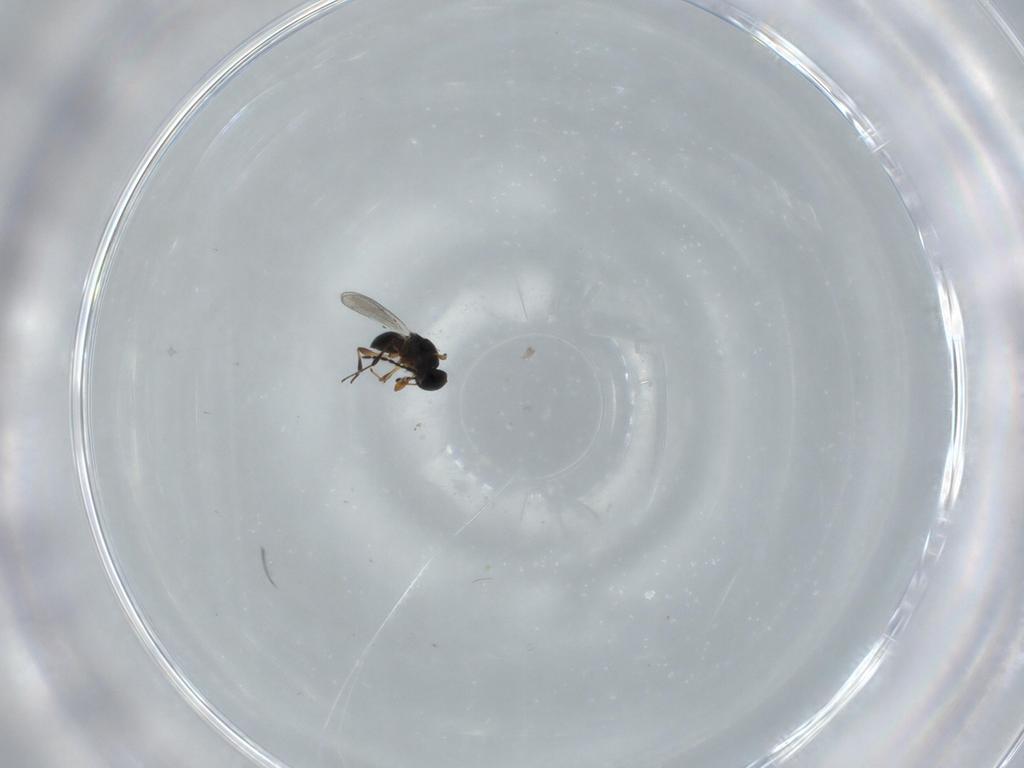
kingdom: Animalia
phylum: Arthropoda
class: Insecta
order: Hymenoptera
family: Platygastridae
